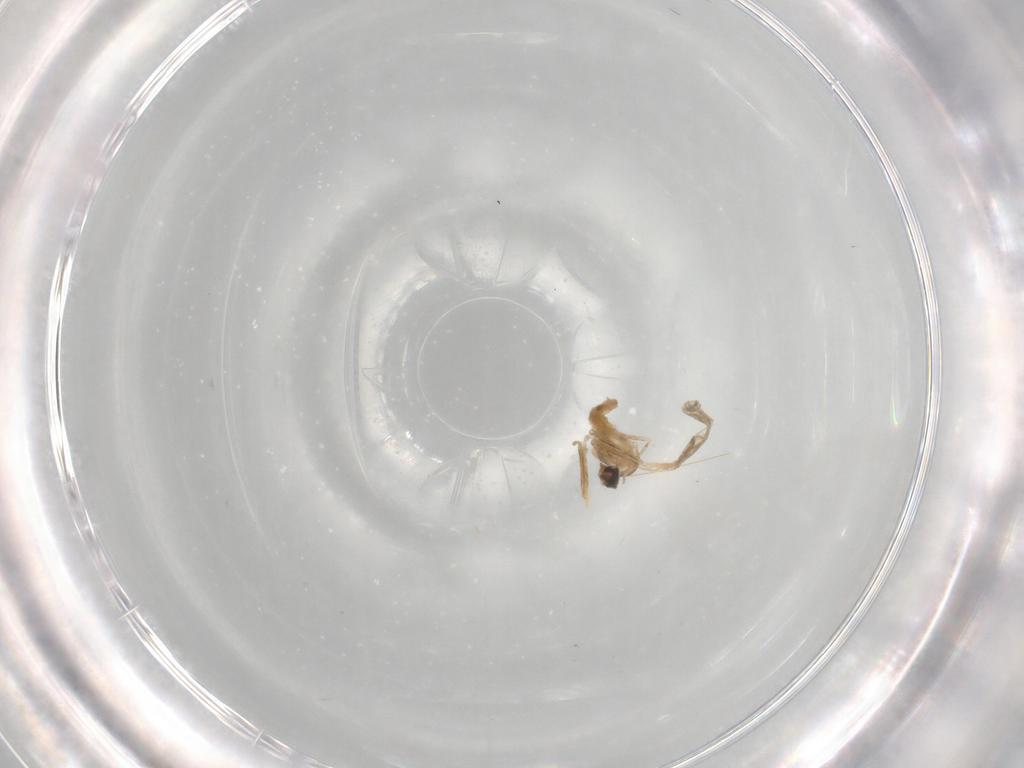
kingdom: Animalia
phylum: Arthropoda
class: Insecta
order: Diptera
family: Cecidomyiidae
